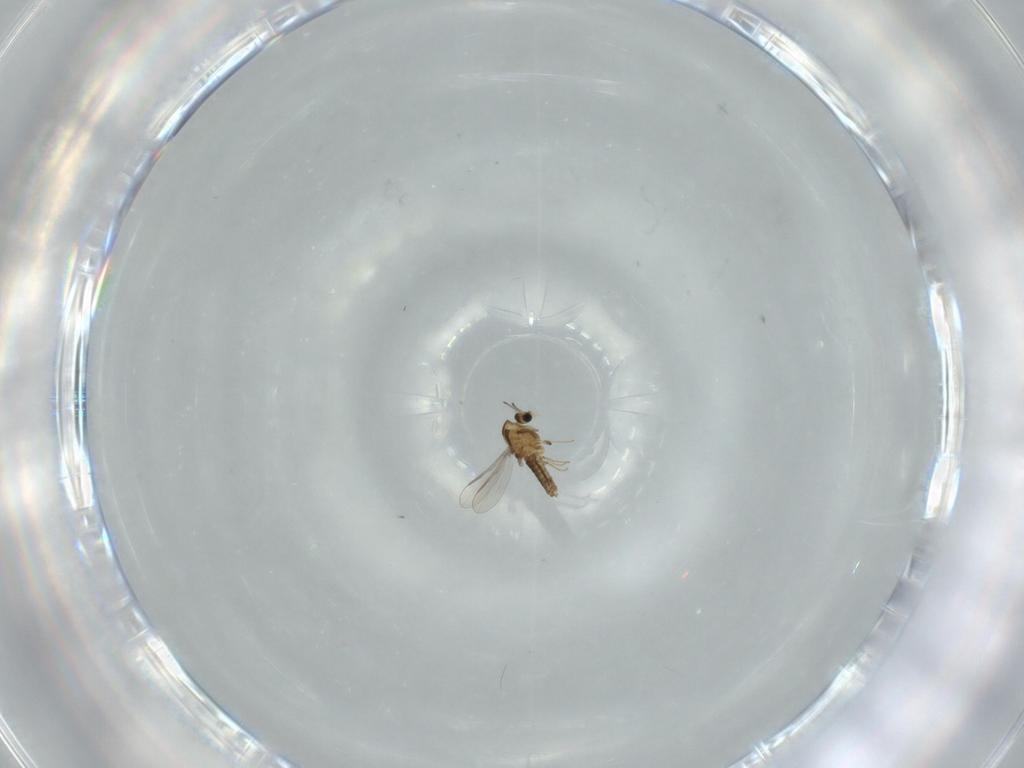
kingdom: Animalia
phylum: Arthropoda
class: Insecta
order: Diptera
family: Chironomidae
